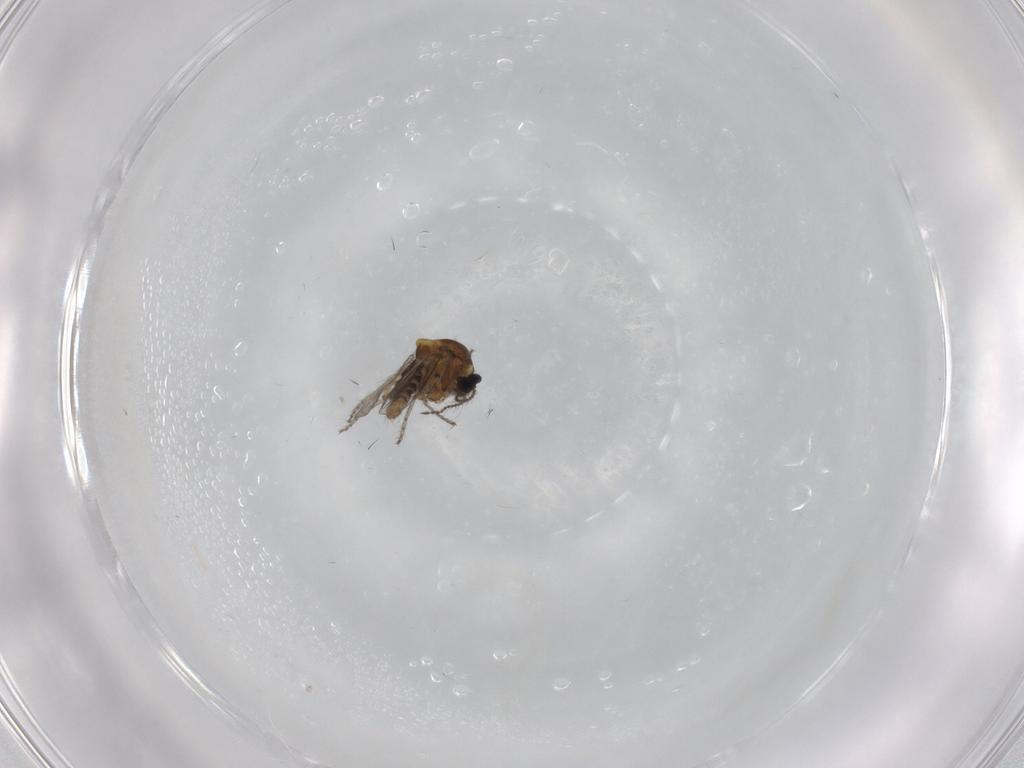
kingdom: Animalia
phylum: Arthropoda
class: Insecta
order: Diptera
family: Ceratopogonidae
